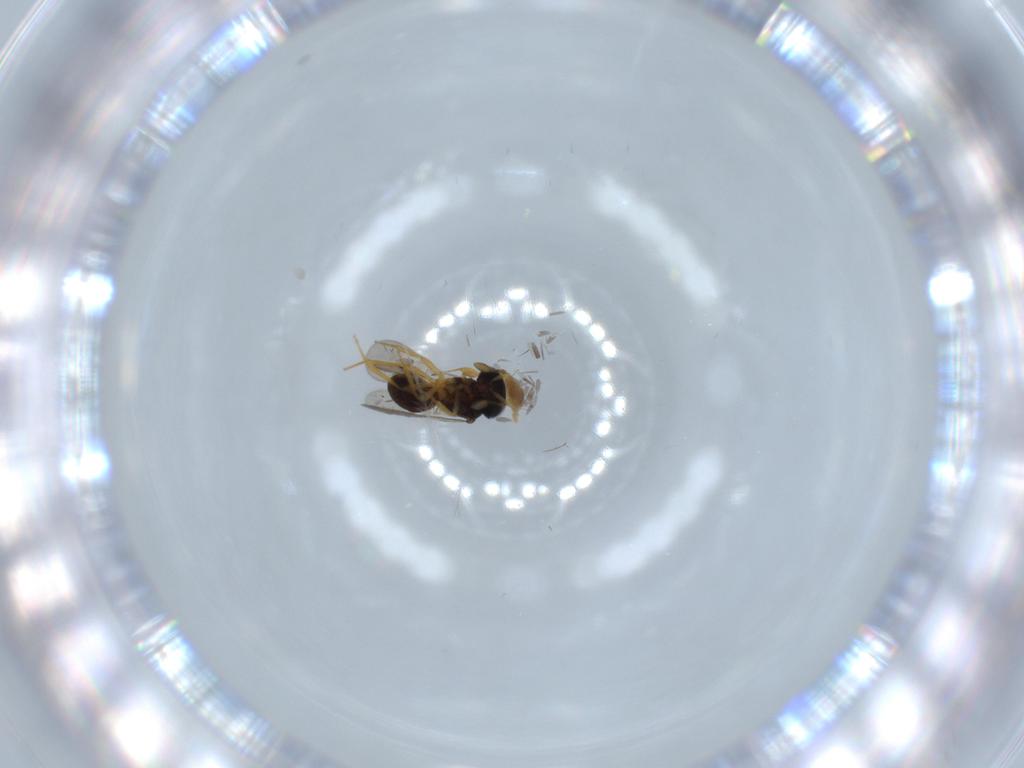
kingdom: Animalia
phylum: Arthropoda
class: Insecta
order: Hymenoptera
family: Scelionidae
